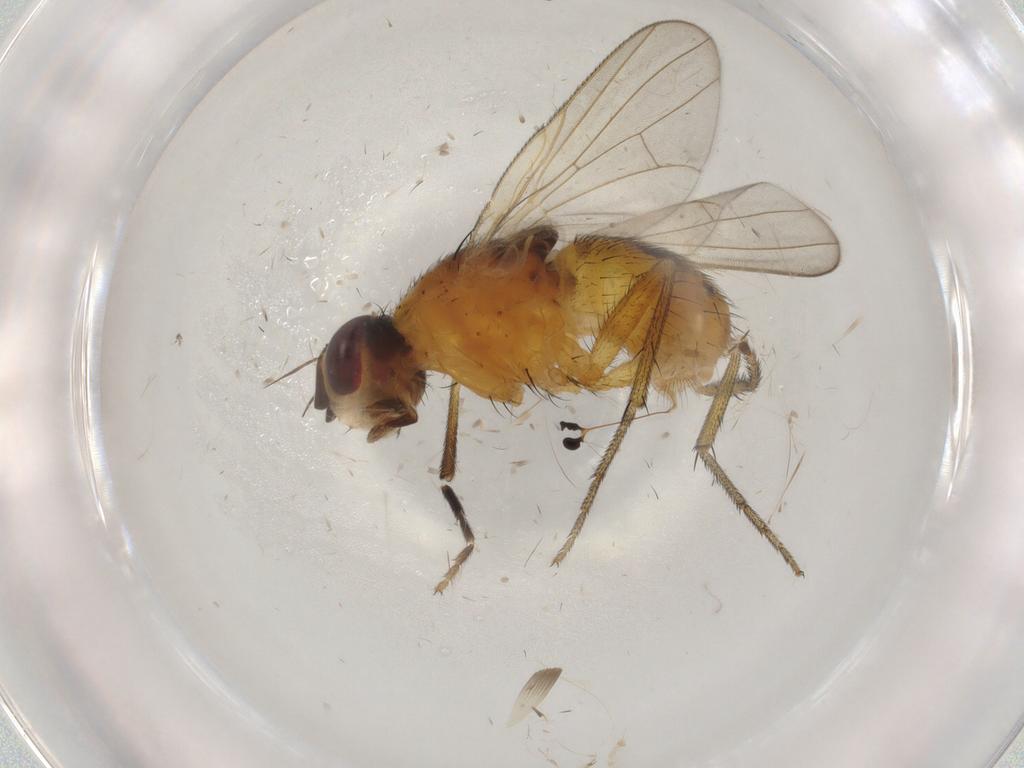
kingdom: Animalia
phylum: Arthropoda
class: Insecta
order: Diptera
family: Muscidae
